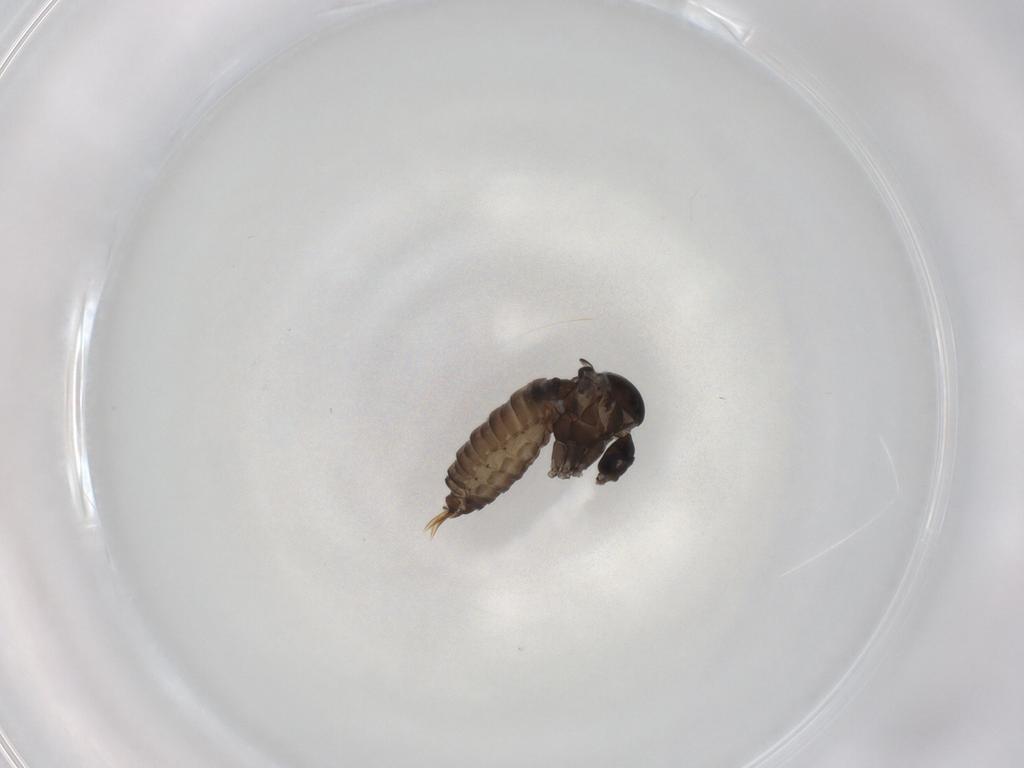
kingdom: Animalia
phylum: Arthropoda
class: Insecta
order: Diptera
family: Psychodidae
